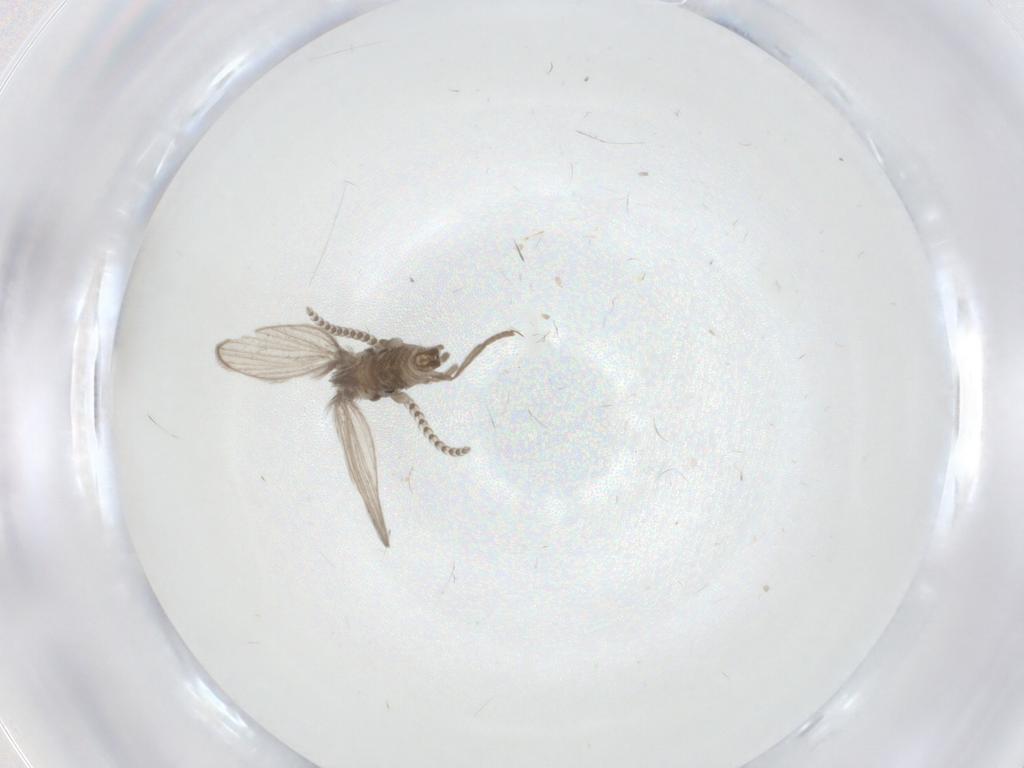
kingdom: Animalia
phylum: Arthropoda
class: Insecta
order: Diptera
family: Psychodidae
